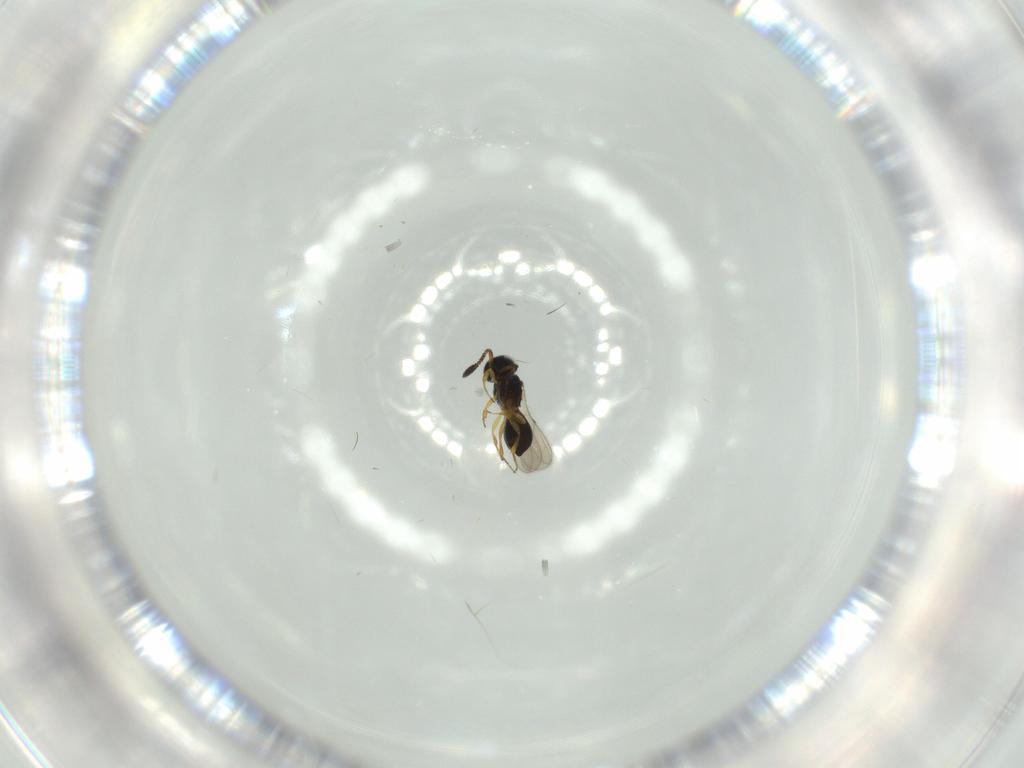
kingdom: Animalia
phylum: Arthropoda
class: Insecta
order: Hymenoptera
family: Scelionidae
